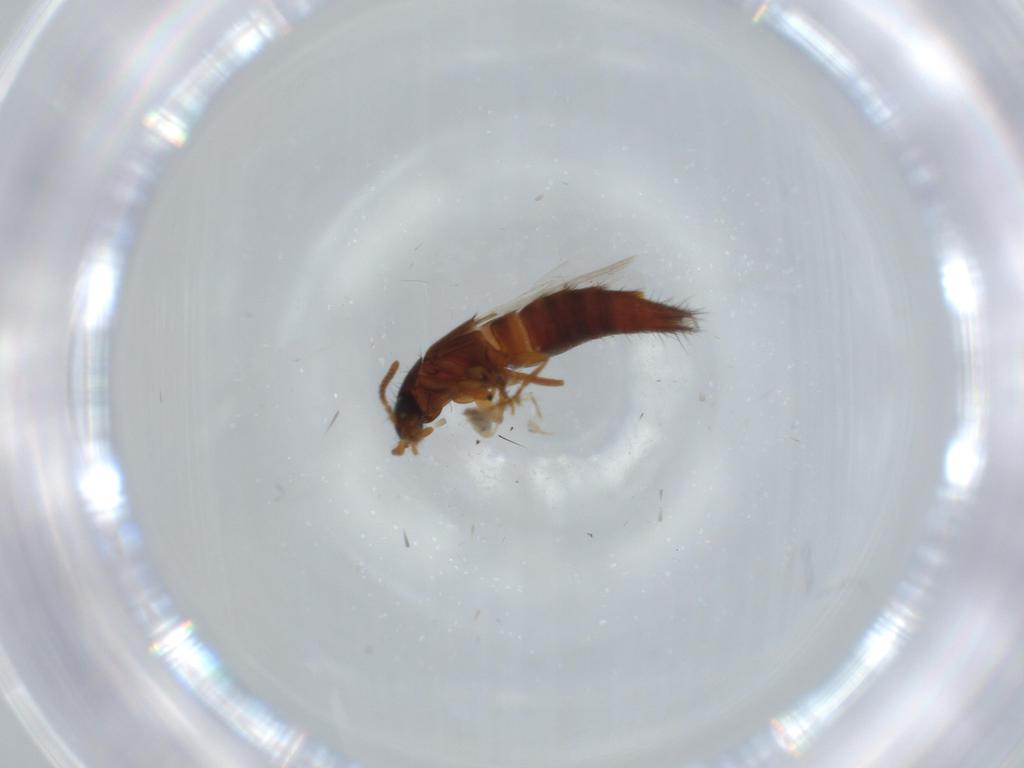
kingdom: Animalia
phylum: Arthropoda
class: Insecta
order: Coleoptera
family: Staphylinidae
